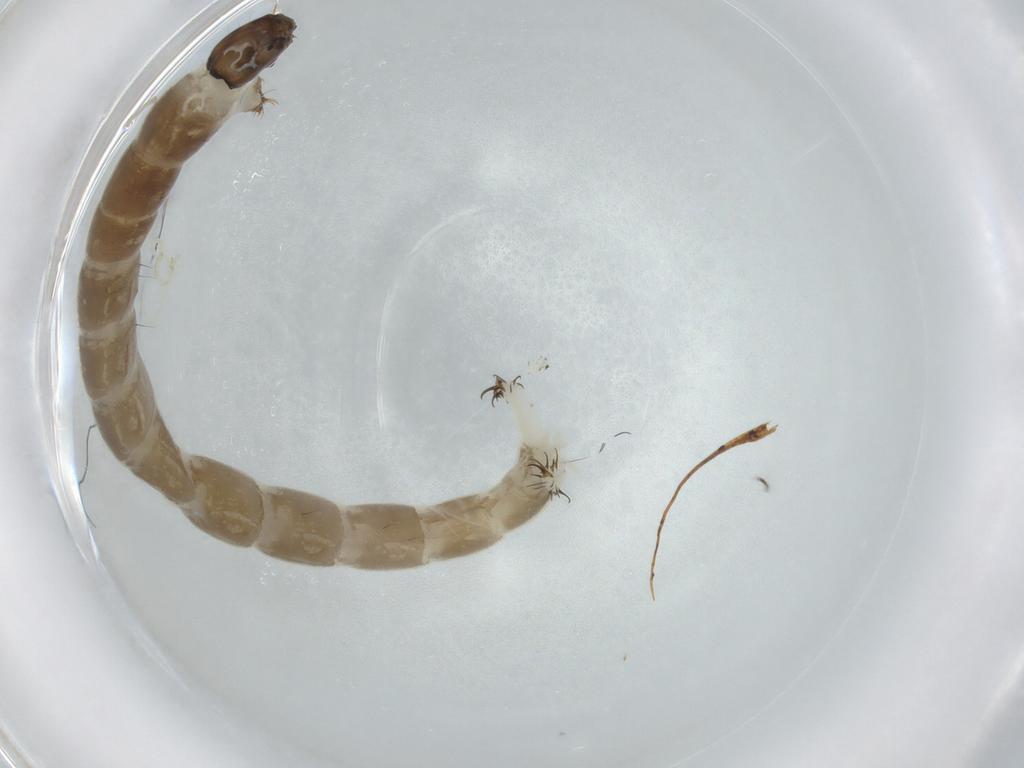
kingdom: Animalia
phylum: Arthropoda
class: Insecta
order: Diptera
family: Chironomidae
